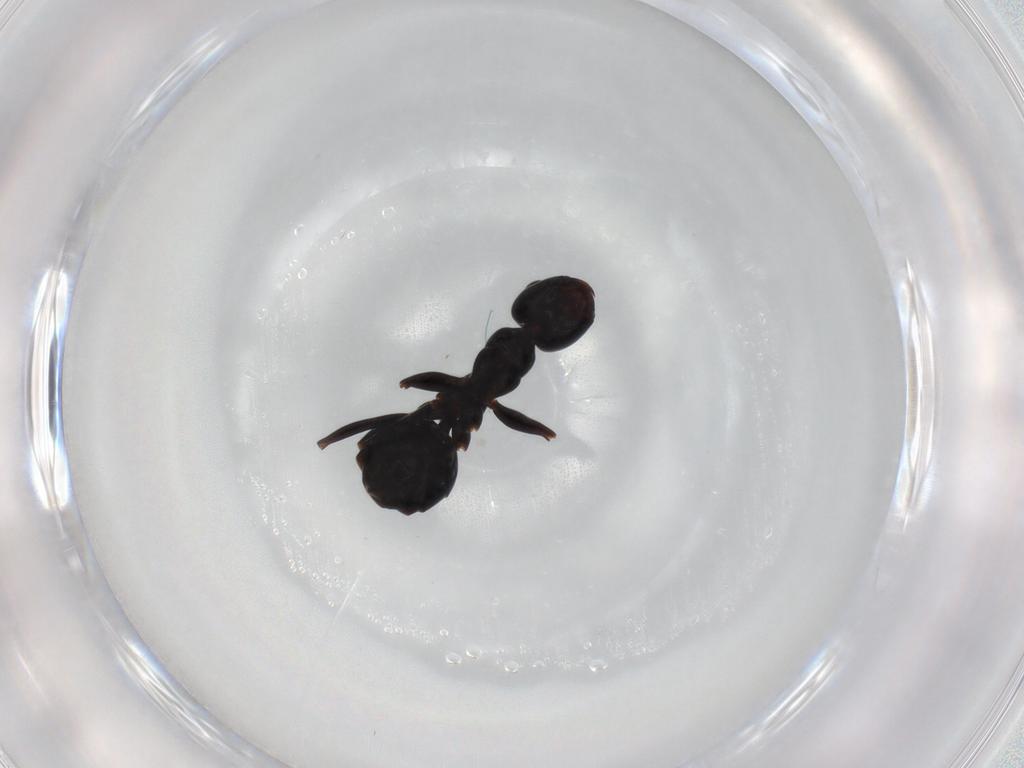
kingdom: Animalia
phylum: Arthropoda
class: Insecta
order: Hymenoptera
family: Formicidae
